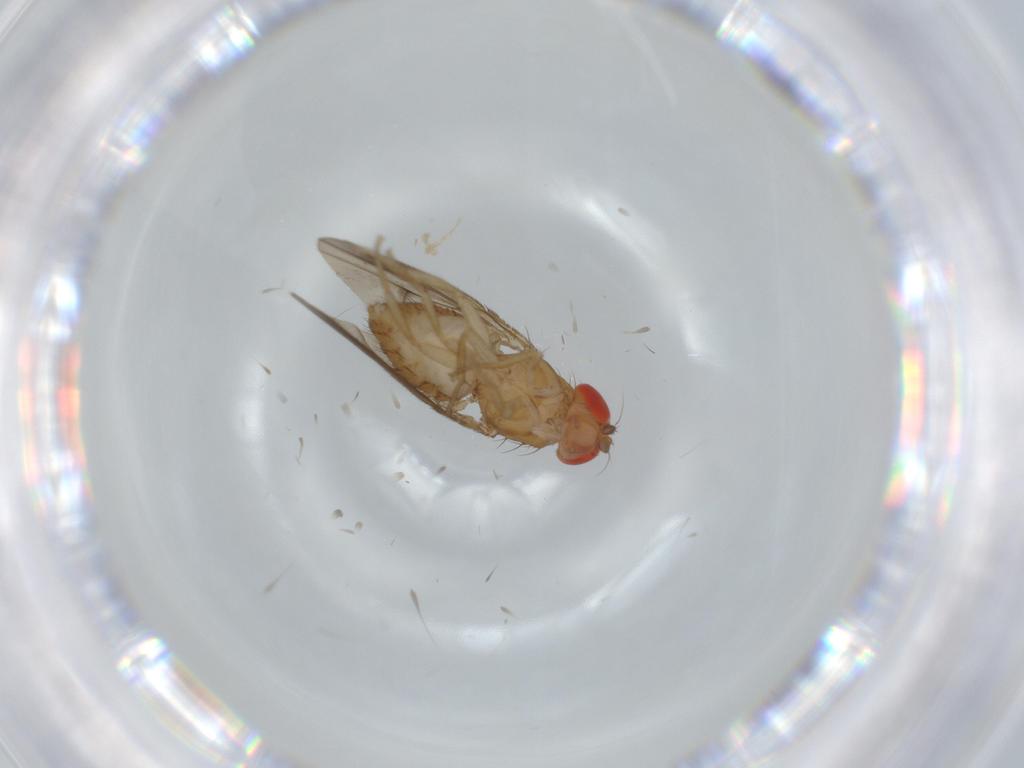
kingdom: Animalia
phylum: Arthropoda
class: Insecta
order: Diptera
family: Drosophilidae
